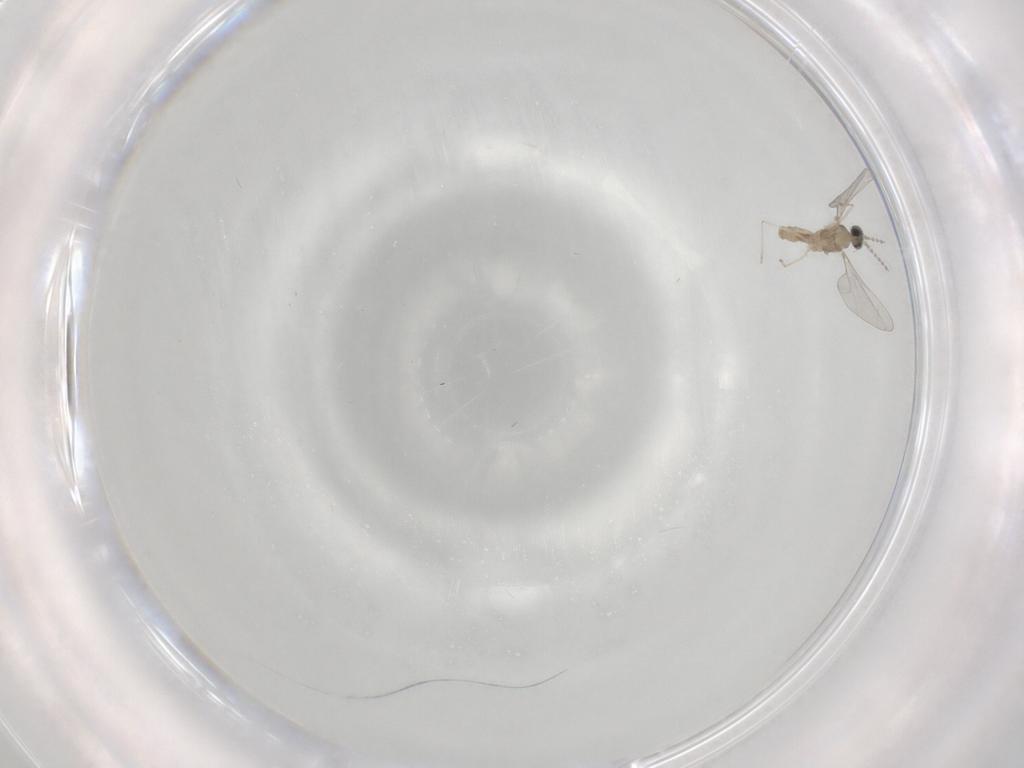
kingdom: Animalia
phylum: Arthropoda
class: Insecta
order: Diptera
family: Cecidomyiidae
